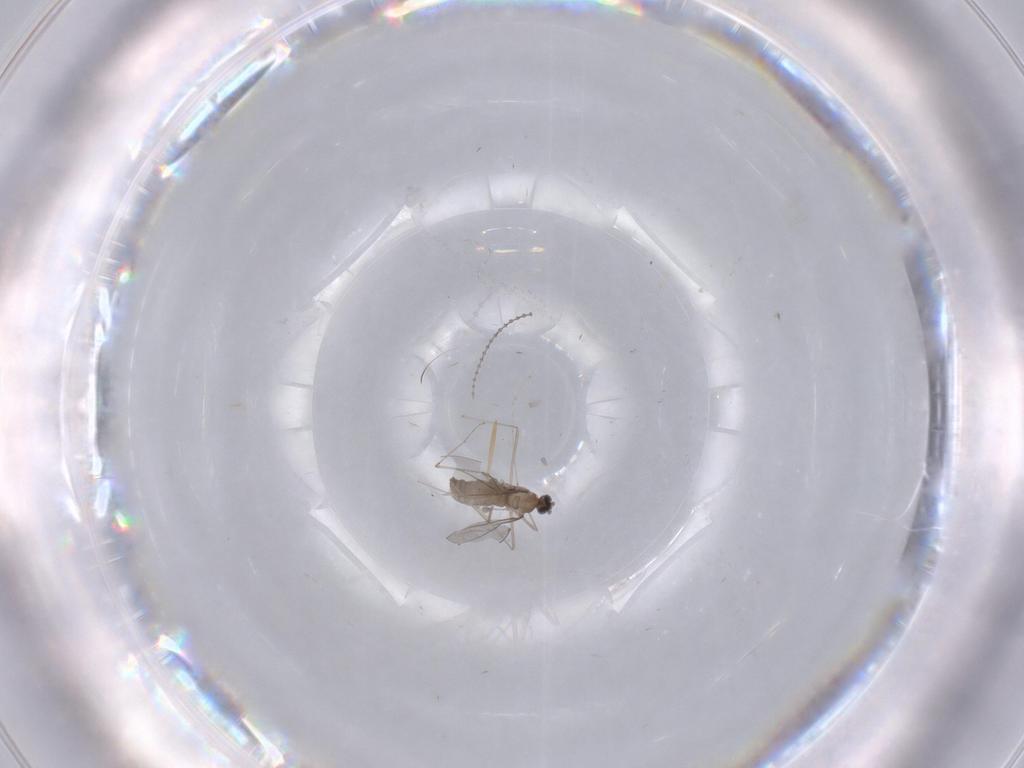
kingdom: Animalia
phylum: Arthropoda
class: Insecta
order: Diptera
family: Cecidomyiidae
